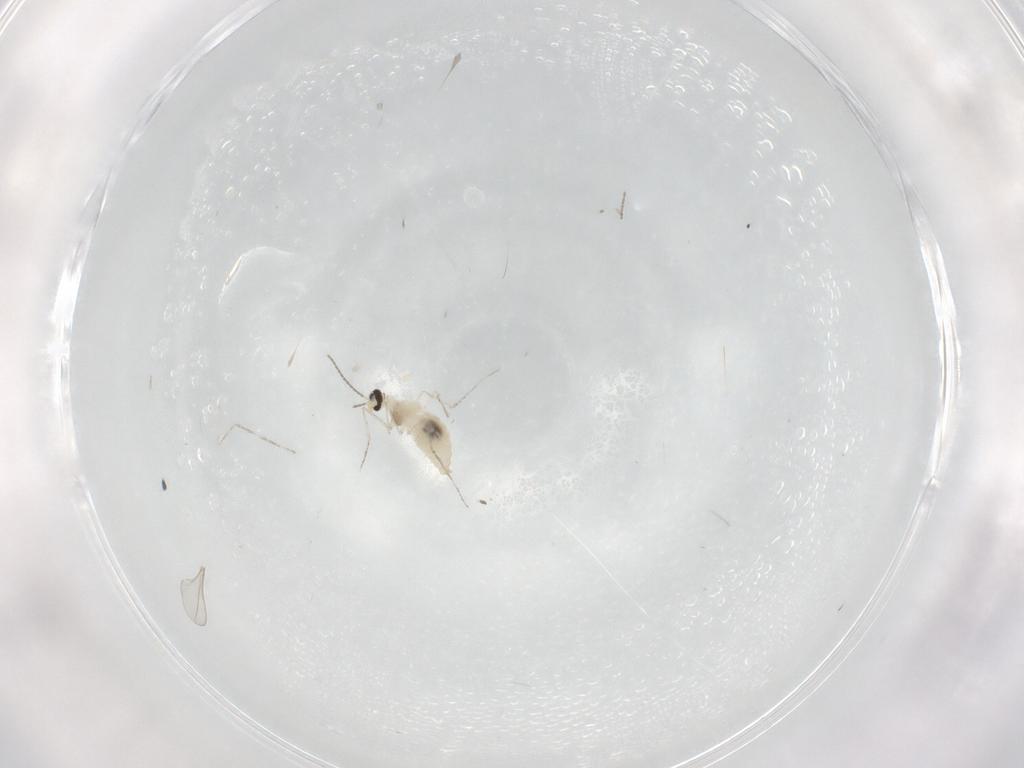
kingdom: Animalia
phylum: Arthropoda
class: Insecta
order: Diptera
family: Cecidomyiidae
